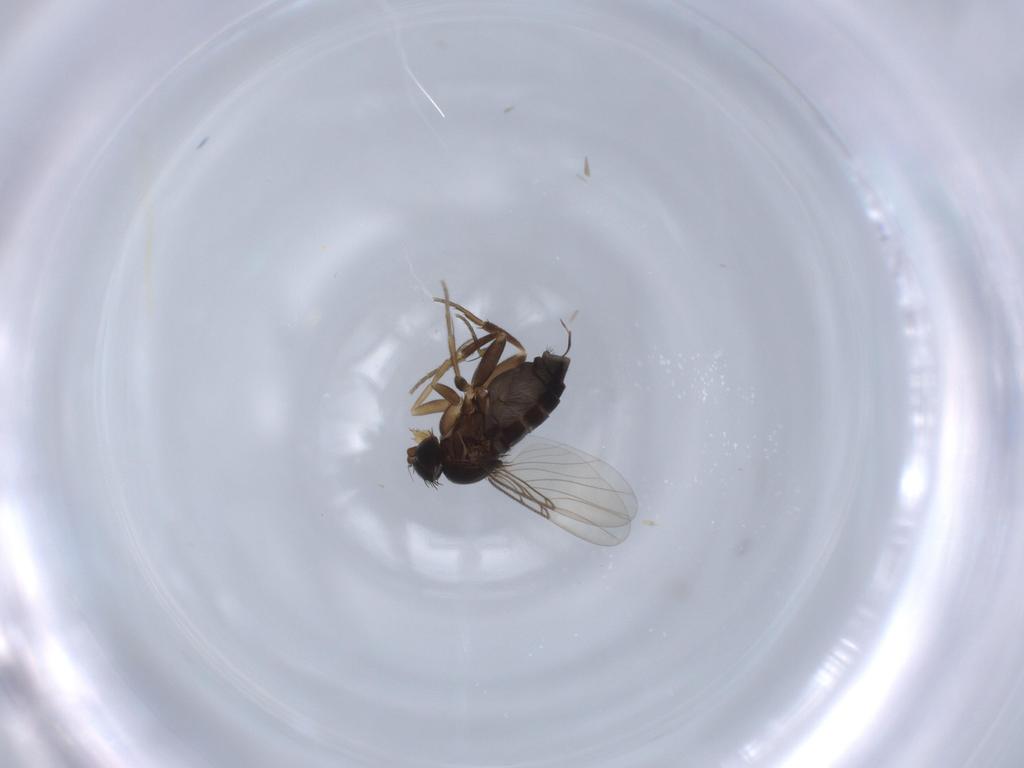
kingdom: Animalia
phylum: Arthropoda
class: Insecta
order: Diptera
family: Phoridae
